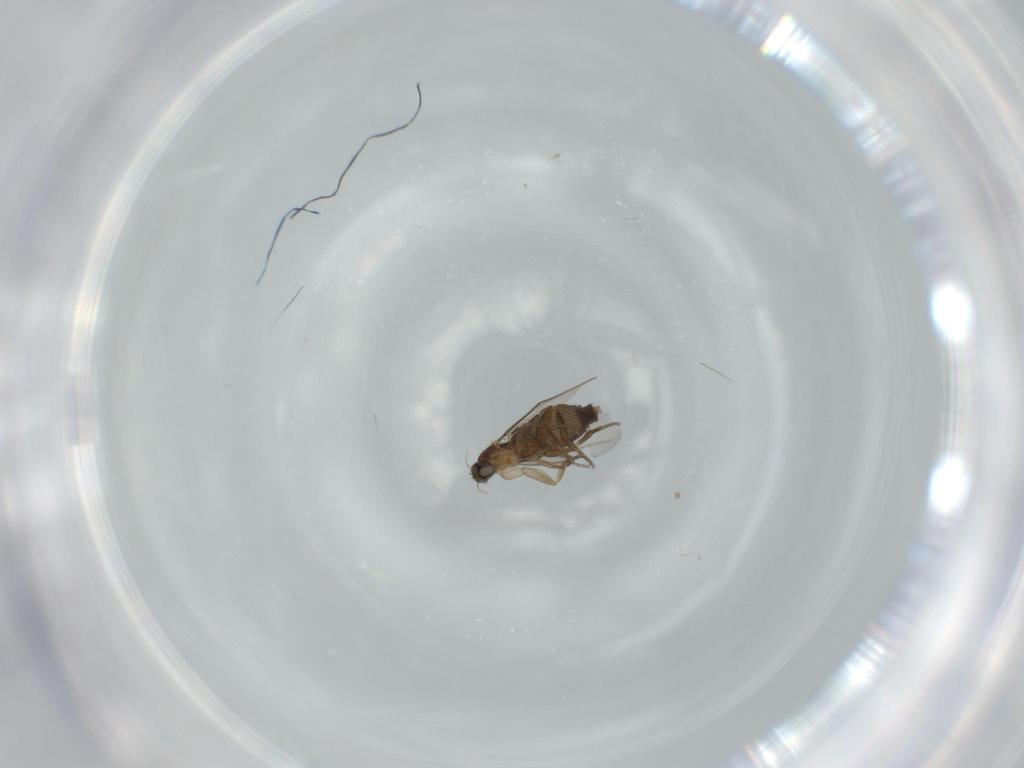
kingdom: Animalia
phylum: Arthropoda
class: Insecta
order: Diptera
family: Phoridae
